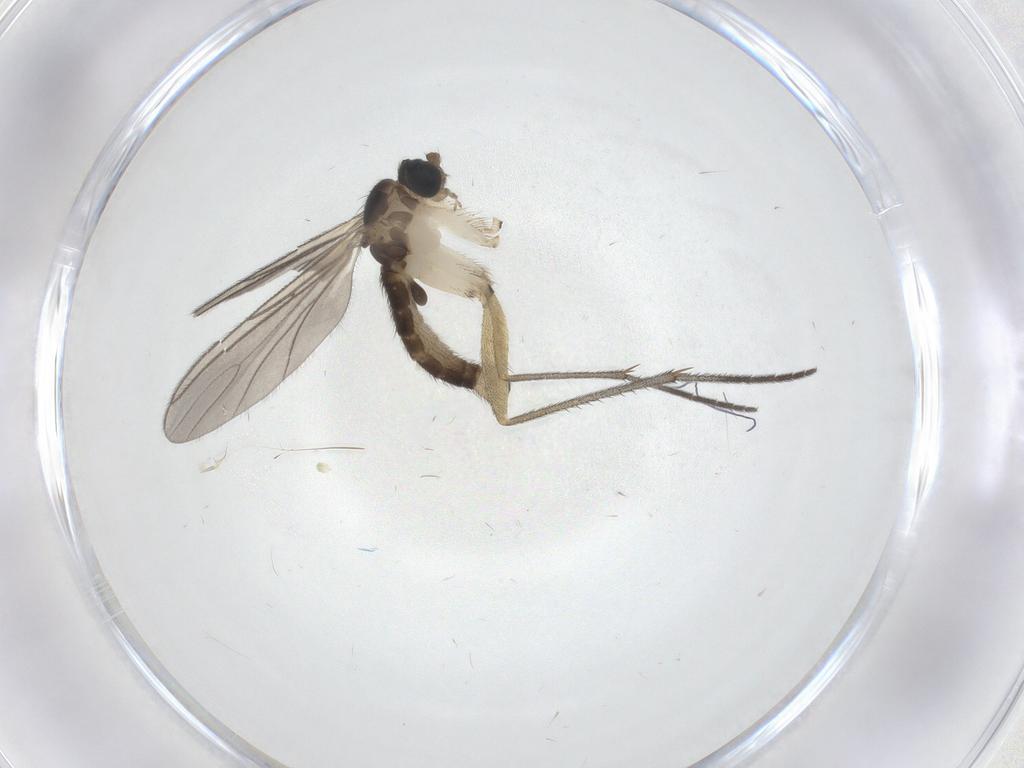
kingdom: Animalia
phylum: Arthropoda
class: Insecta
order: Diptera
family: Sciaridae
